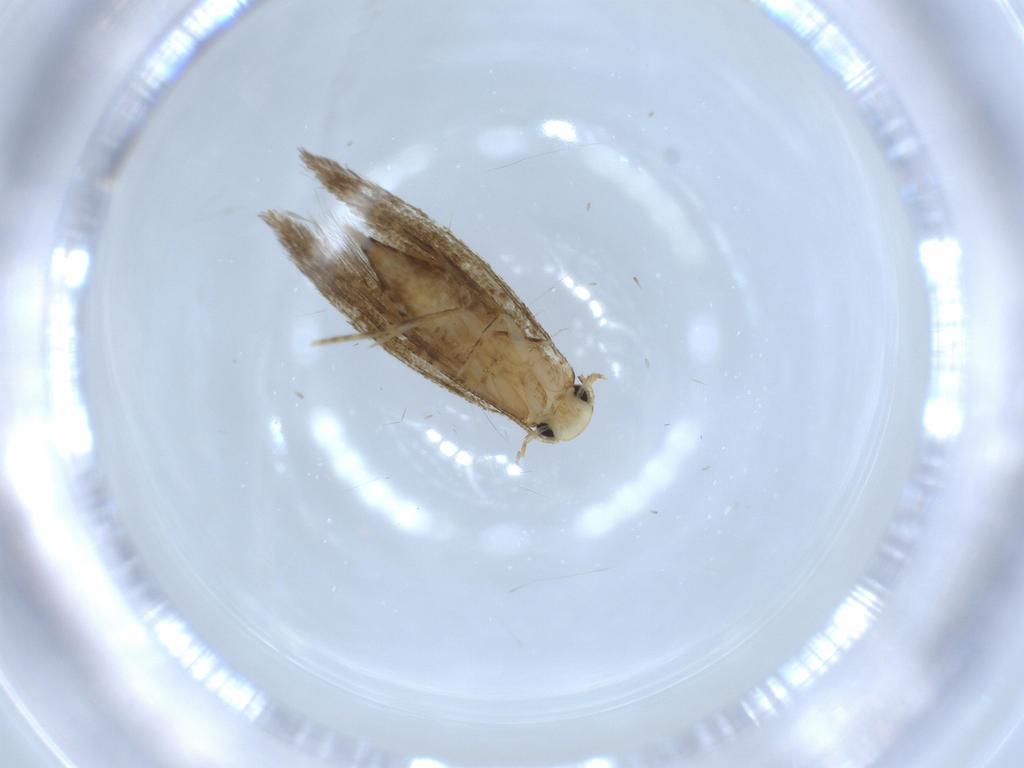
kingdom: Animalia
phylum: Arthropoda
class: Insecta
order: Lepidoptera
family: Tineidae
